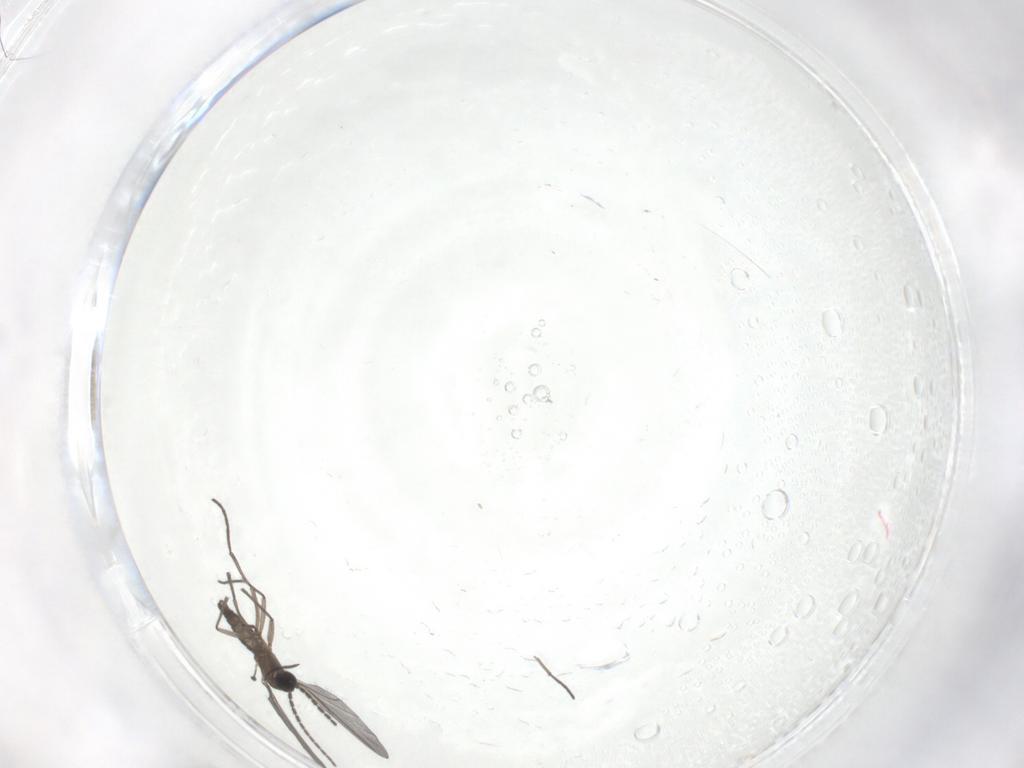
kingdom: Animalia
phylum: Arthropoda
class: Insecta
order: Diptera
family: Sciaridae
